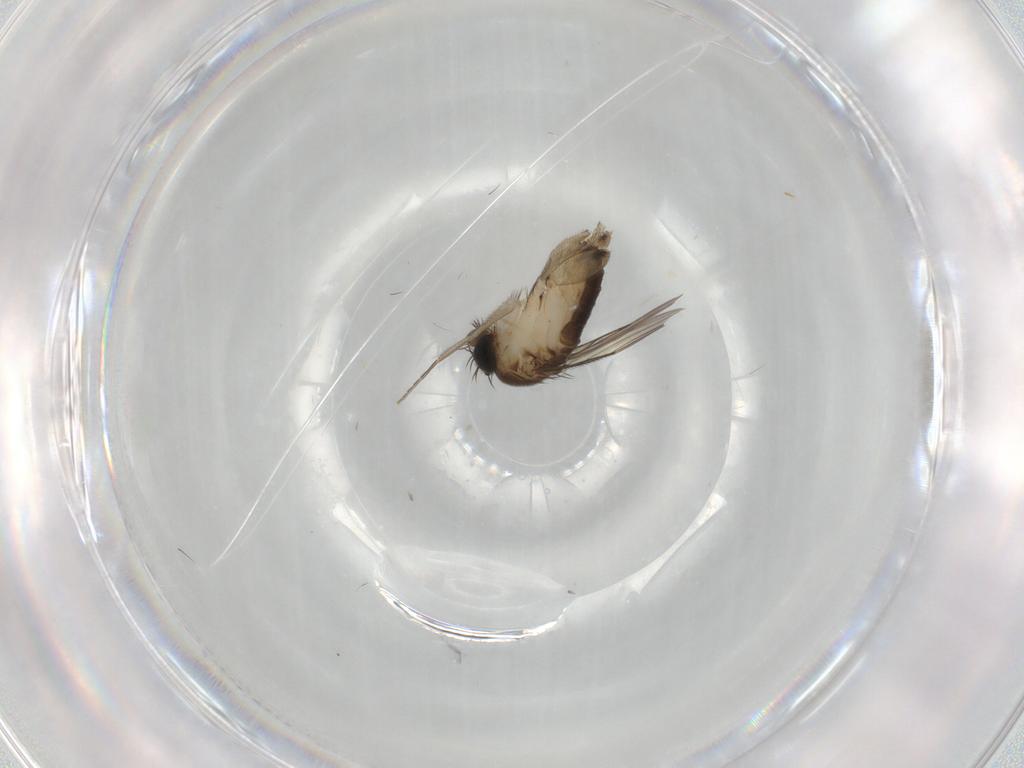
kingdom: Animalia
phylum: Arthropoda
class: Insecta
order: Diptera
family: Phoridae
